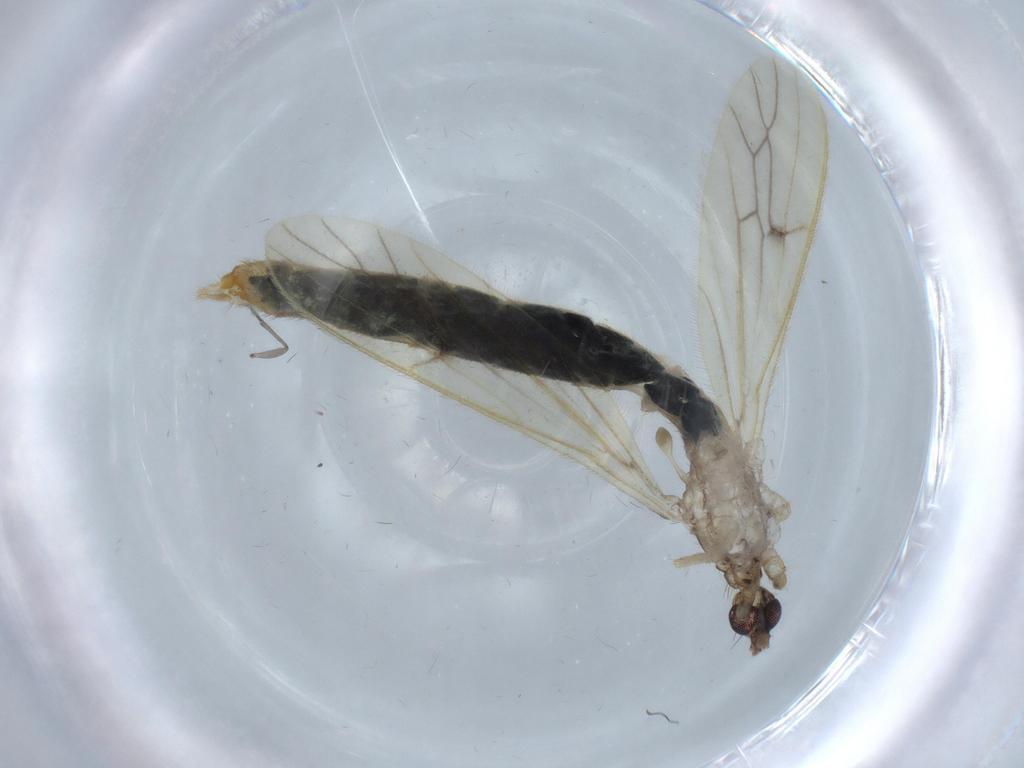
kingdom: Animalia
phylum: Arthropoda
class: Insecta
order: Diptera
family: Limoniidae
